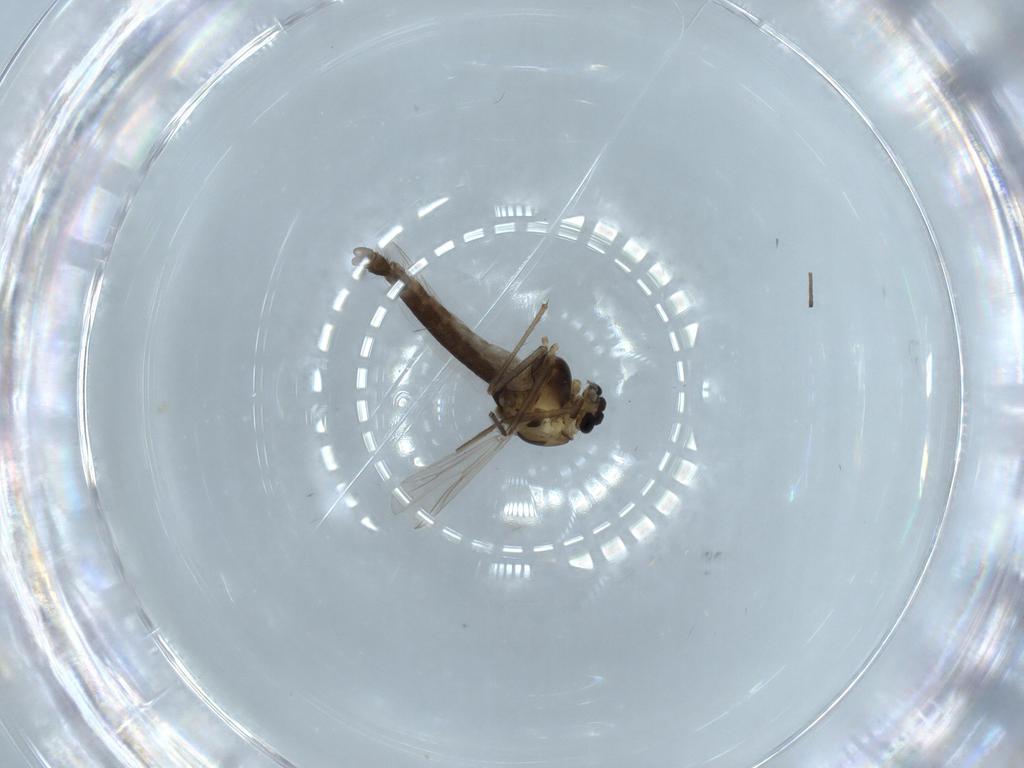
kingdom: Animalia
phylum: Arthropoda
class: Insecta
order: Diptera
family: Chironomidae
